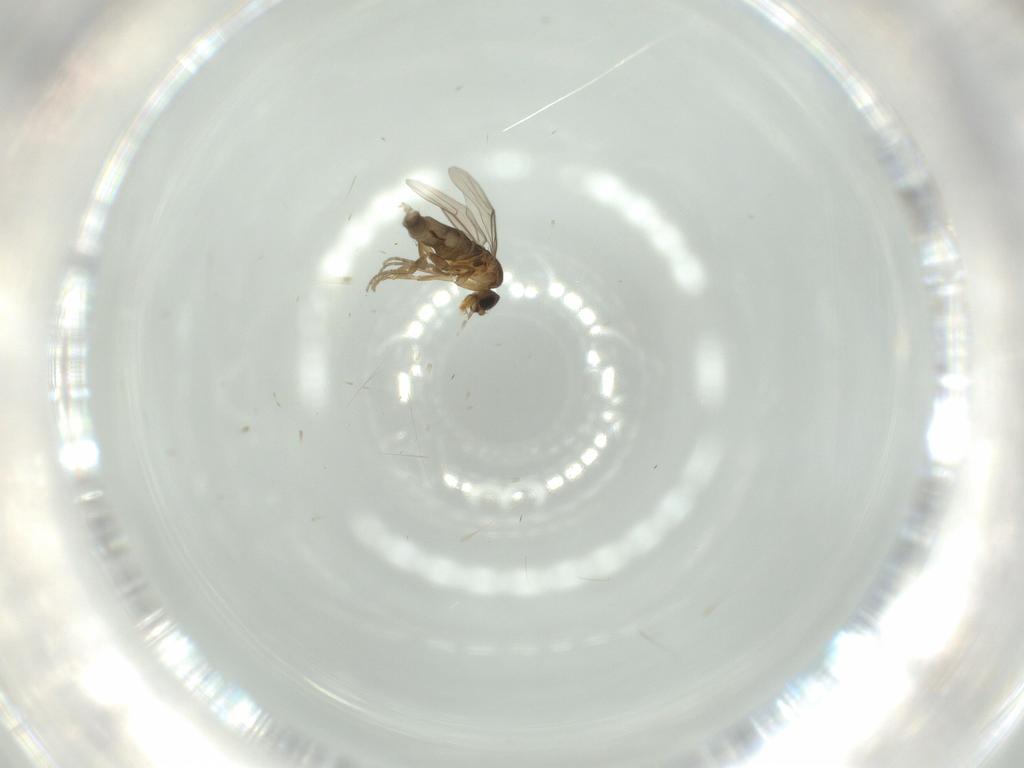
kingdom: Animalia
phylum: Arthropoda
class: Insecta
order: Diptera
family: Phoridae
